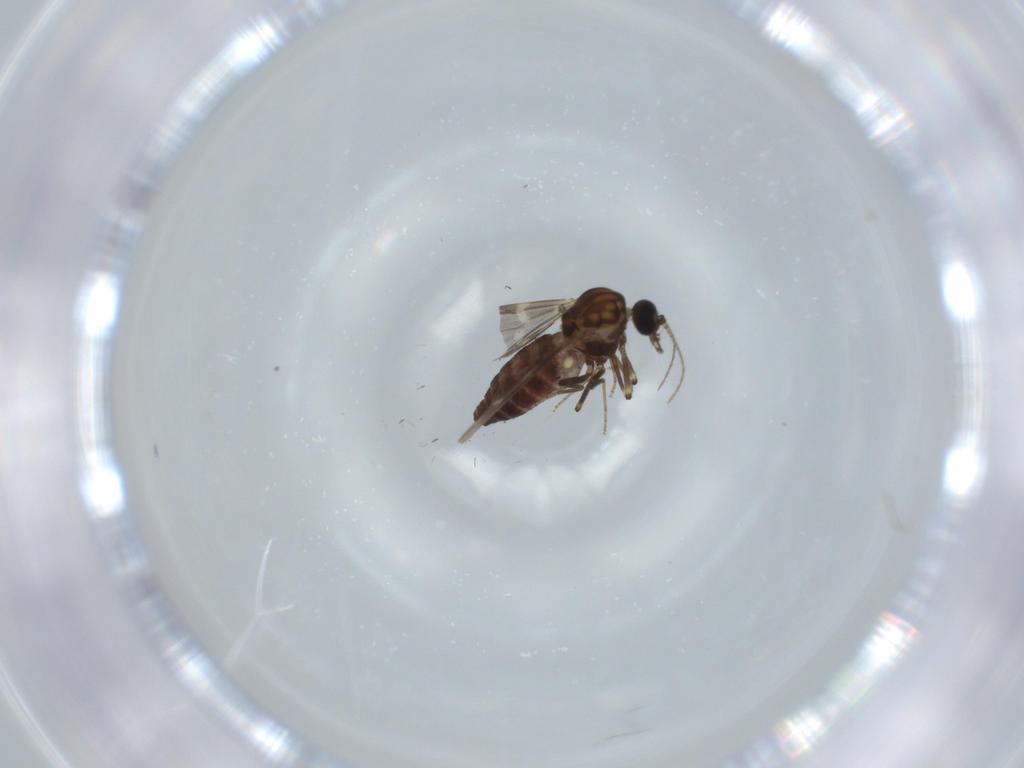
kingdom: Animalia
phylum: Arthropoda
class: Insecta
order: Diptera
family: Ceratopogonidae
